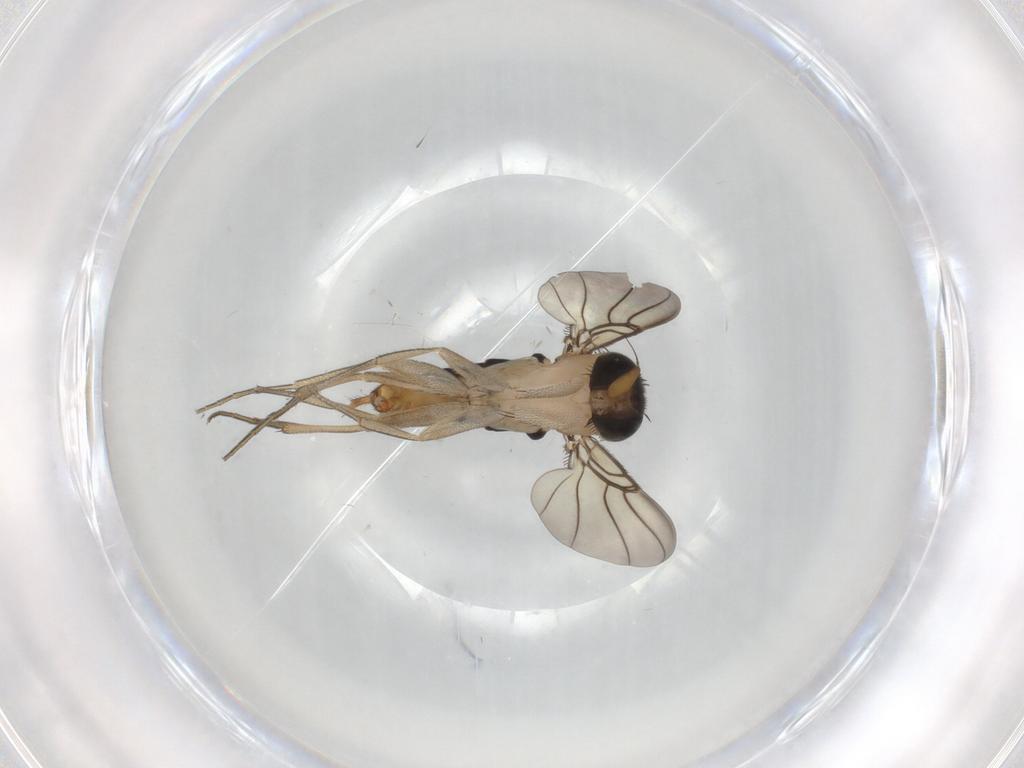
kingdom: Animalia
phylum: Arthropoda
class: Insecta
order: Diptera
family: Phoridae
